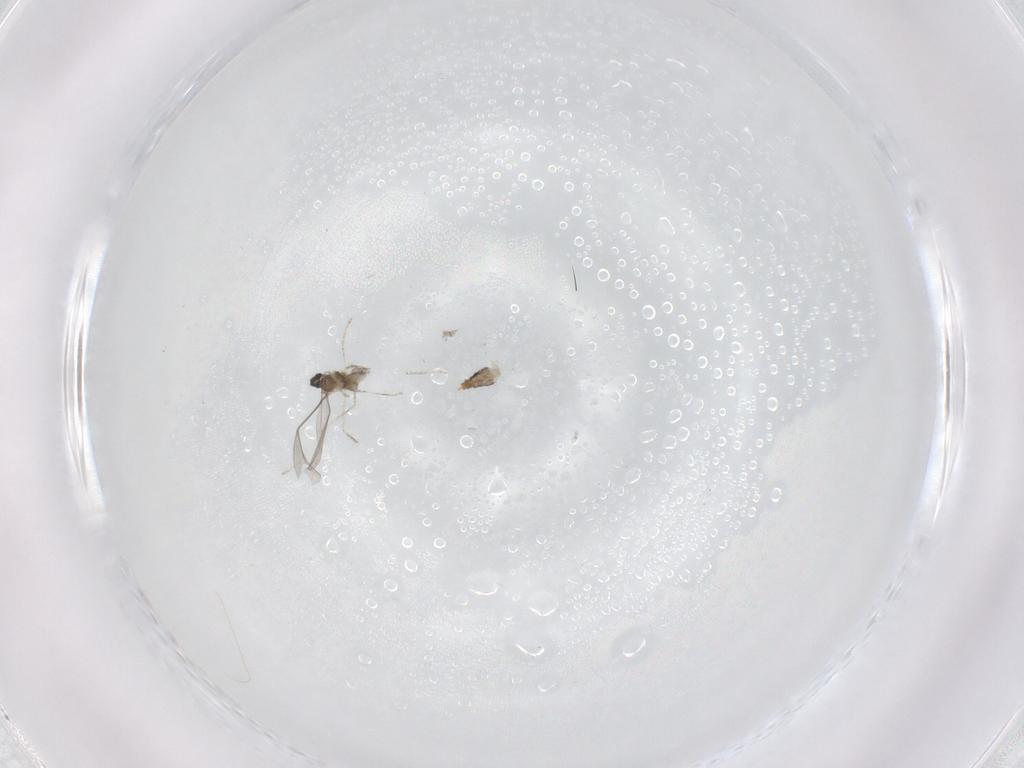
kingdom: Animalia
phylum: Arthropoda
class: Insecta
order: Diptera
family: Cecidomyiidae
